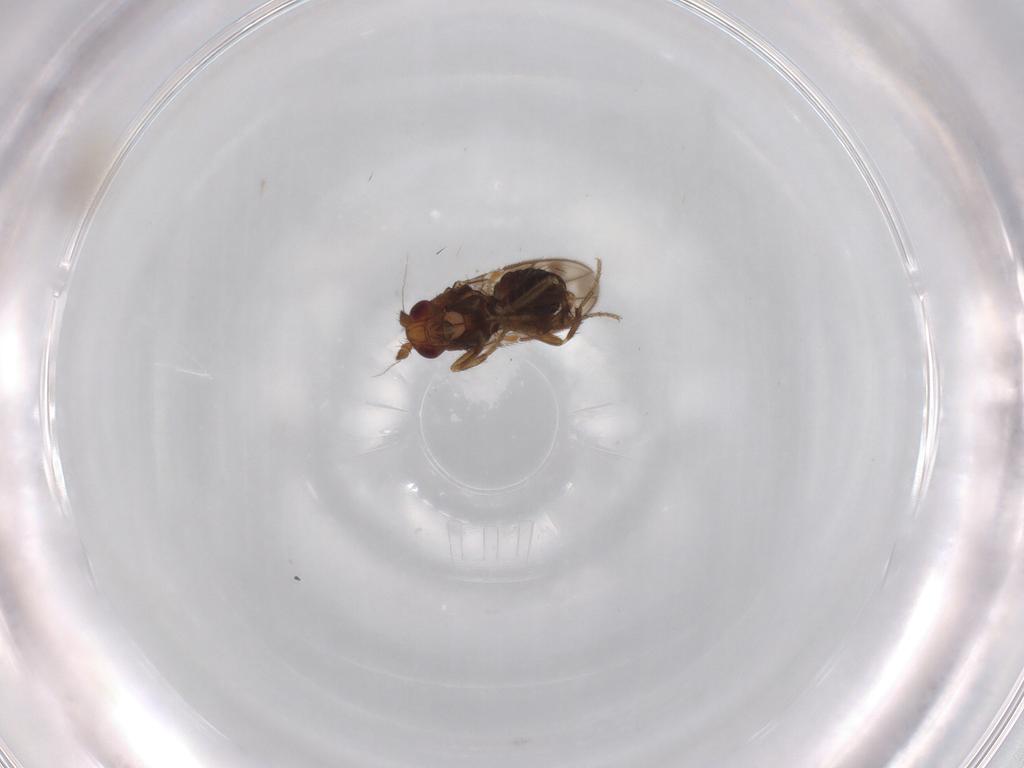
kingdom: Animalia
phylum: Arthropoda
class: Insecta
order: Diptera
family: Sphaeroceridae
